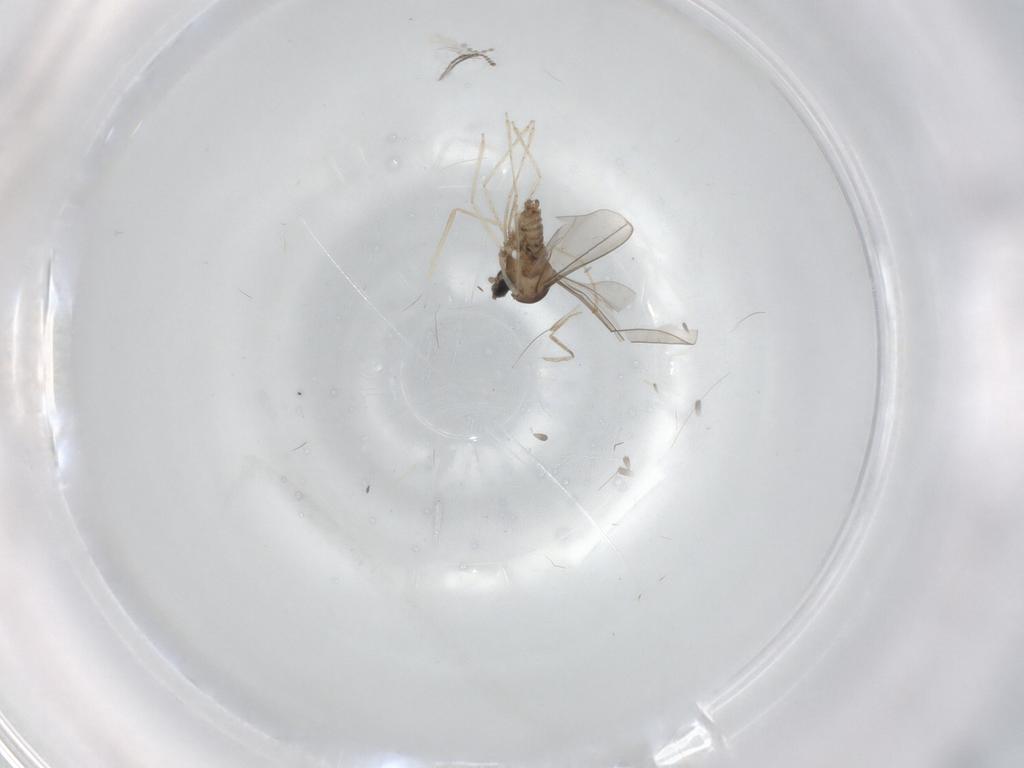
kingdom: Animalia
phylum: Arthropoda
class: Insecta
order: Diptera
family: Cecidomyiidae
